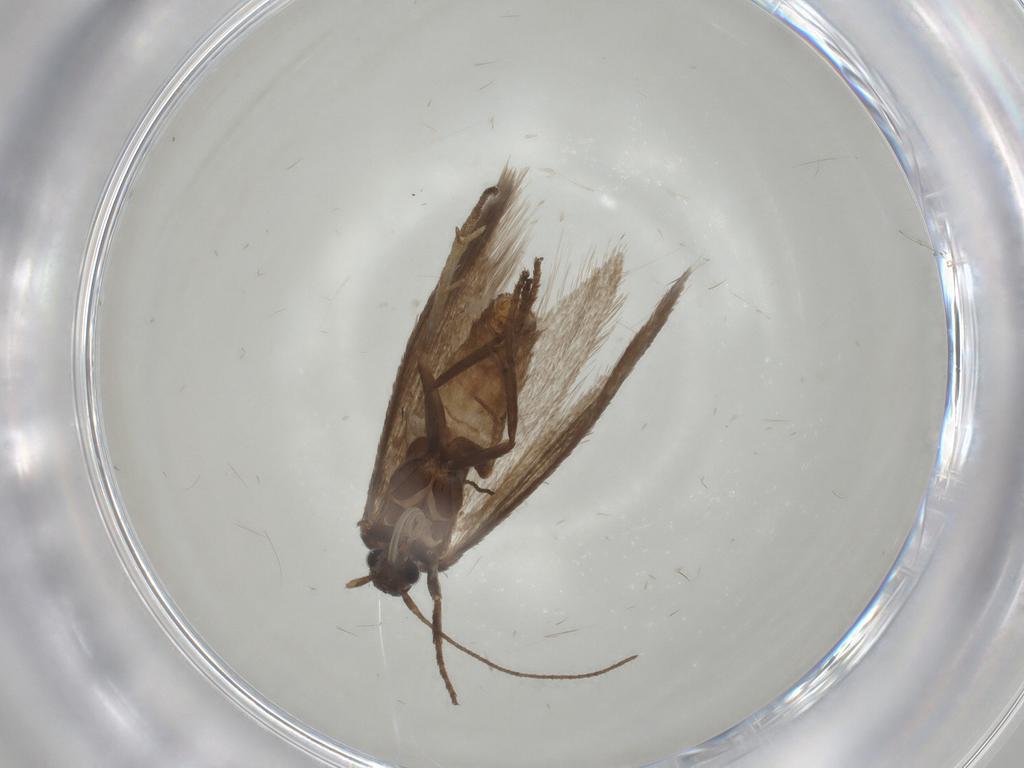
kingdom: Animalia
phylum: Arthropoda
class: Insecta
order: Lepidoptera
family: Limacodidae
